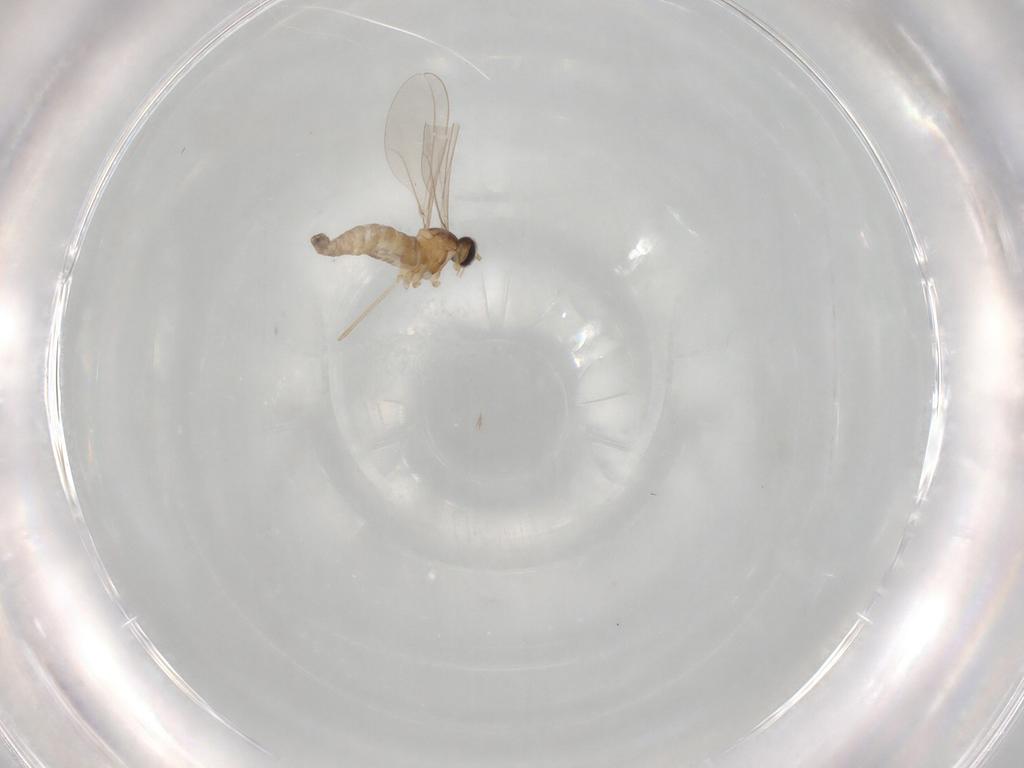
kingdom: Animalia
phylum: Arthropoda
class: Insecta
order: Diptera
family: Cecidomyiidae
